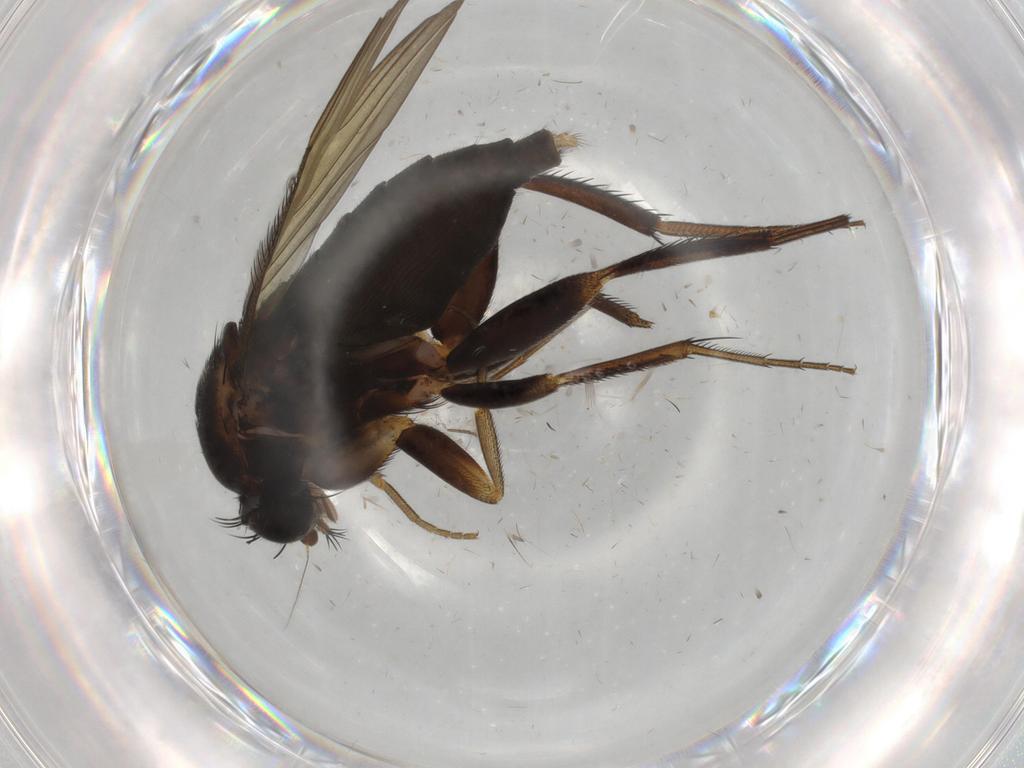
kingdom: Animalia
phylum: Arthropoda
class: Insecta
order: Diptera
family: Phoridae
